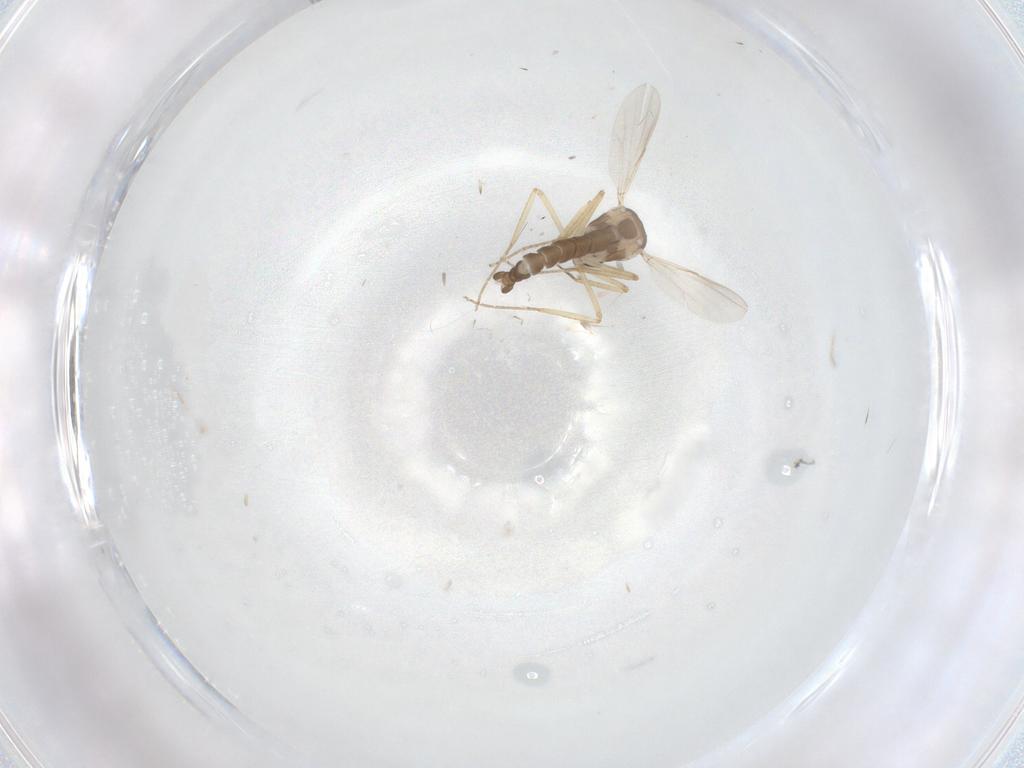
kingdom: Animalia
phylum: Arthropoda
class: Insecta
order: Diptera
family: Ceratopogonidae
